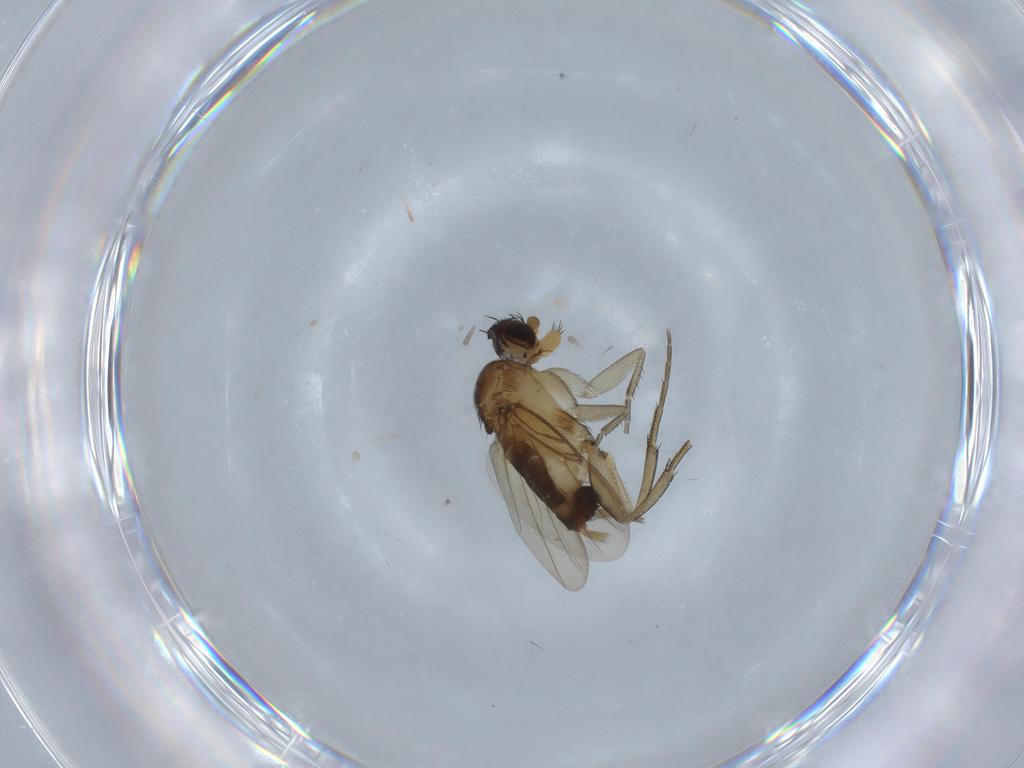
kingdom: Animalia
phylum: Arthropoda
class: Insecta
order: Diptera
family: Phoridae
